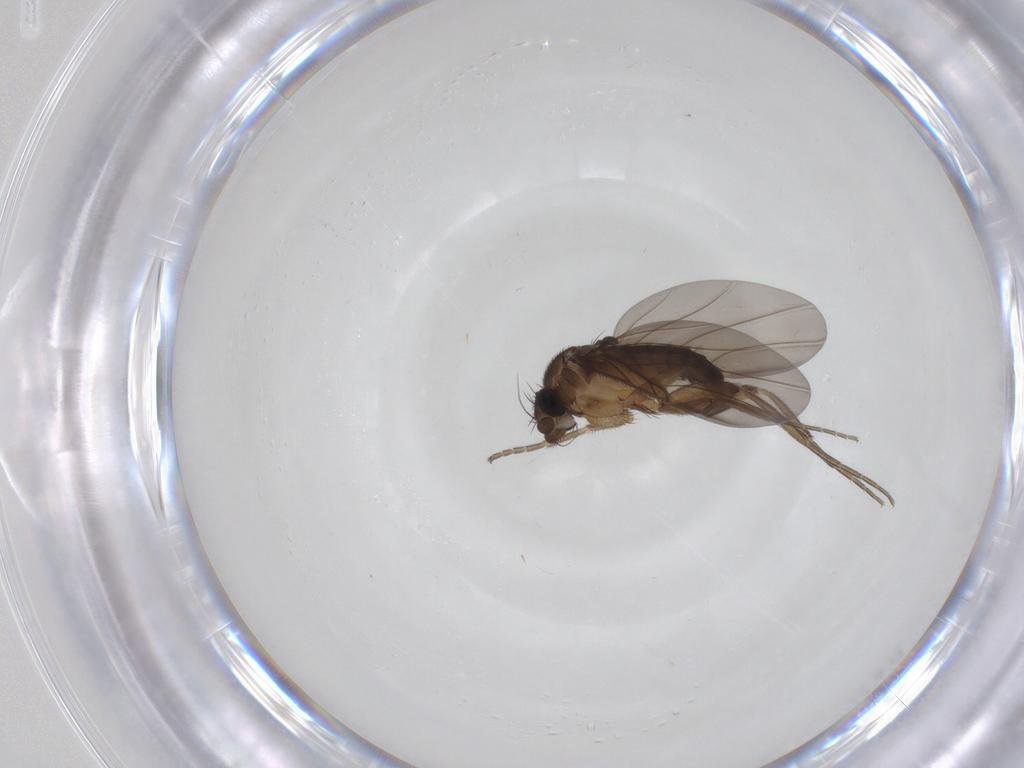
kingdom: Animalia
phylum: Arthropoda
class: Insecta
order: Diptera
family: Phoridae
